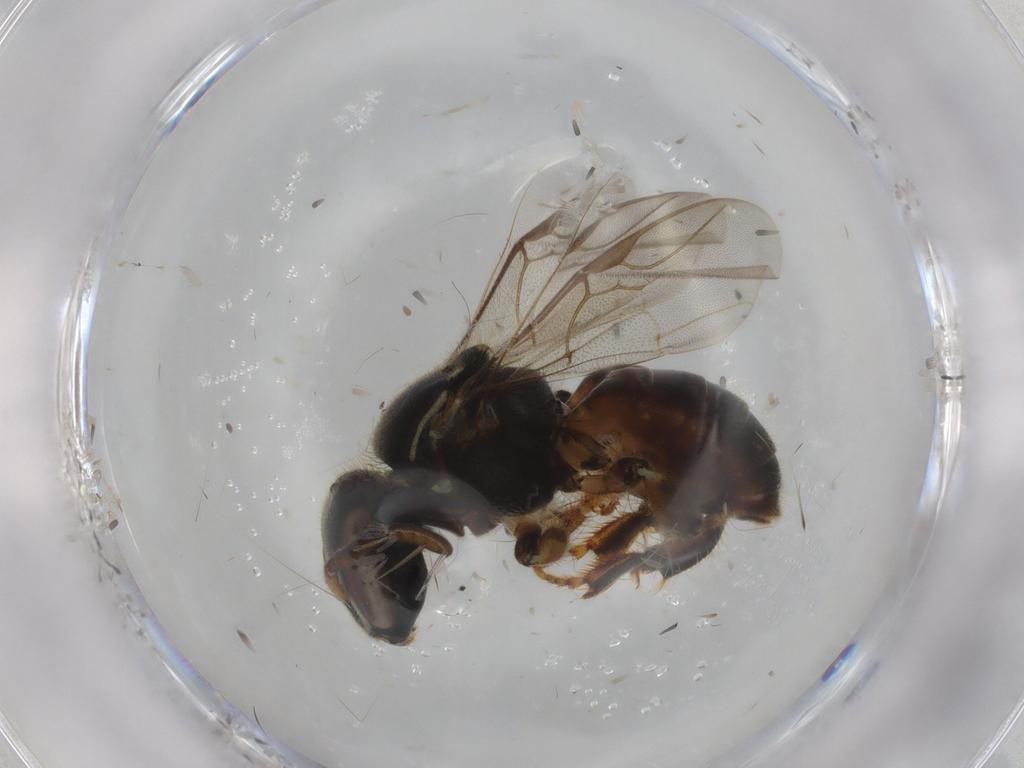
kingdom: Animalia
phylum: Arthropoda
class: Insecta
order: Hymenoptera
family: Apidae
